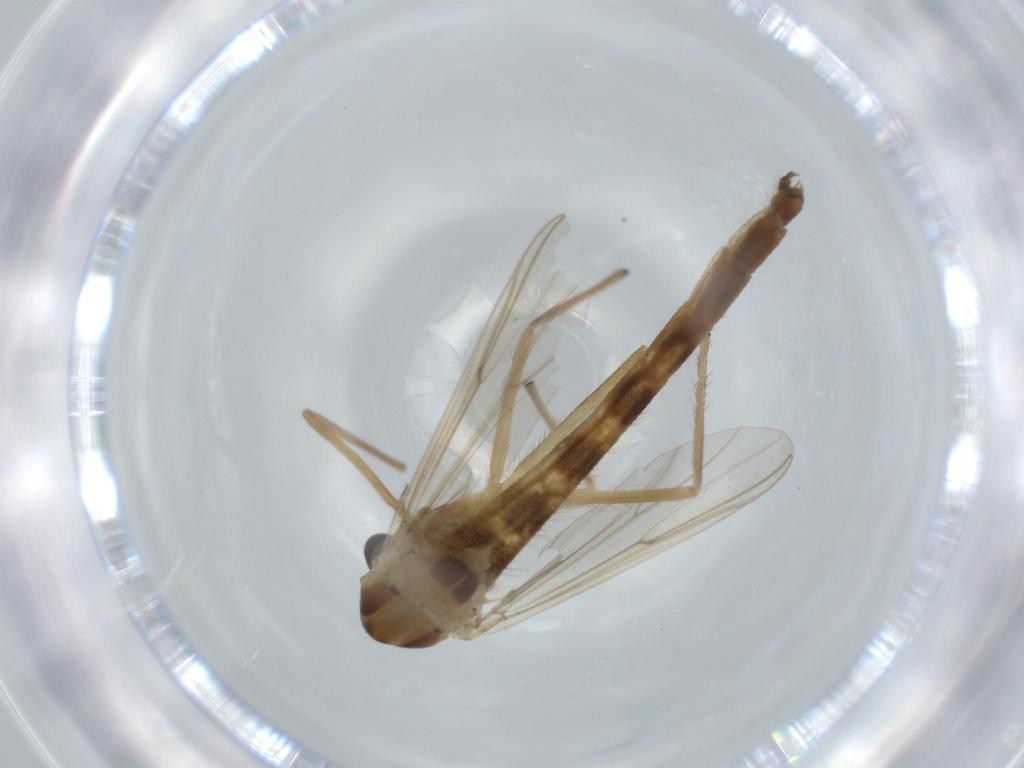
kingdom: Animalia
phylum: Arthropoda
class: Insecta
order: Diptera
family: Chironomidae
